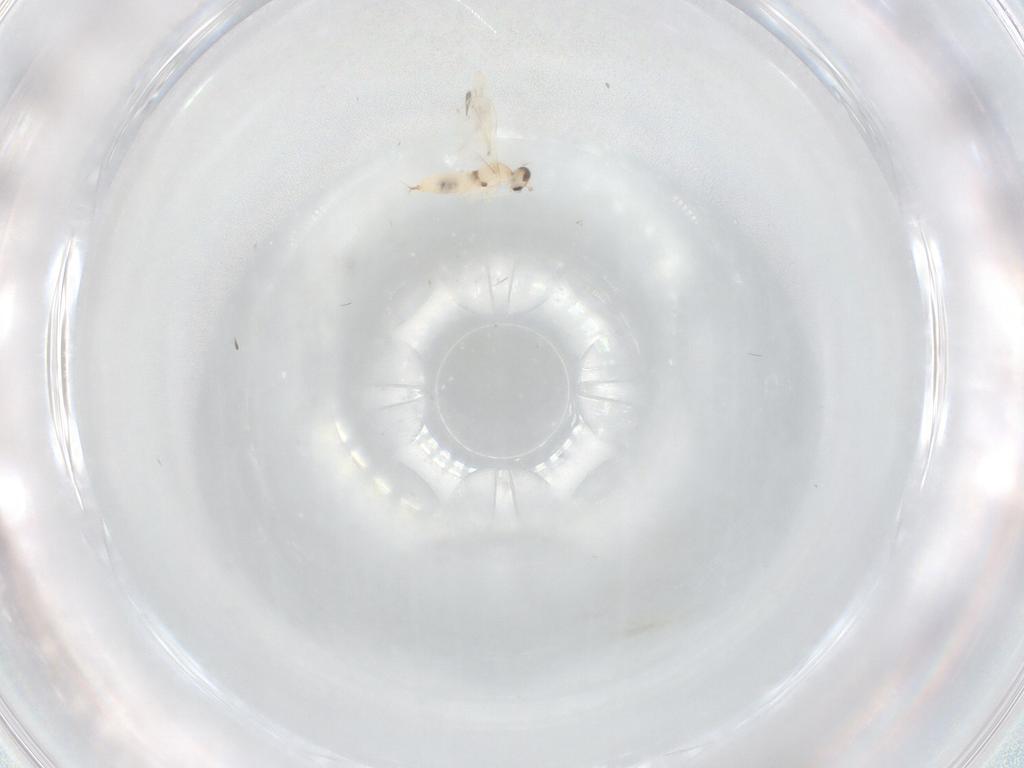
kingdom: Animalia
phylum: Arthropoda
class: Insecta
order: Diptera
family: Cecidomyiidae
